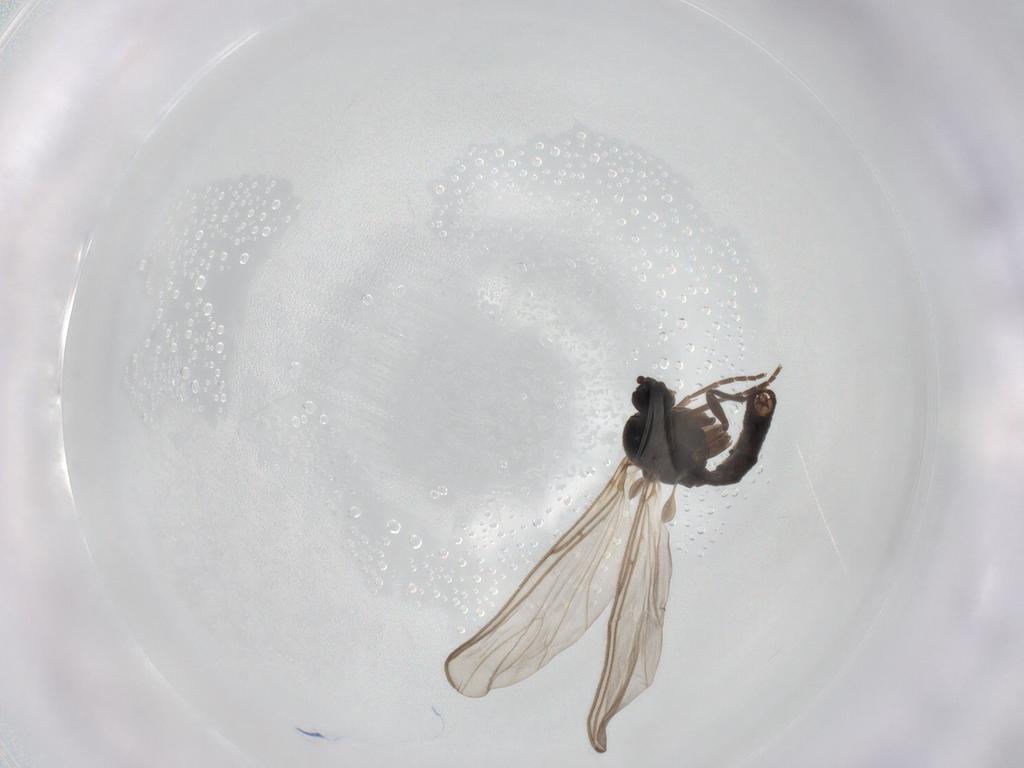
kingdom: Animalia
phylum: Arthropoda
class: Insecta
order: Diptera
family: Sciaridae
